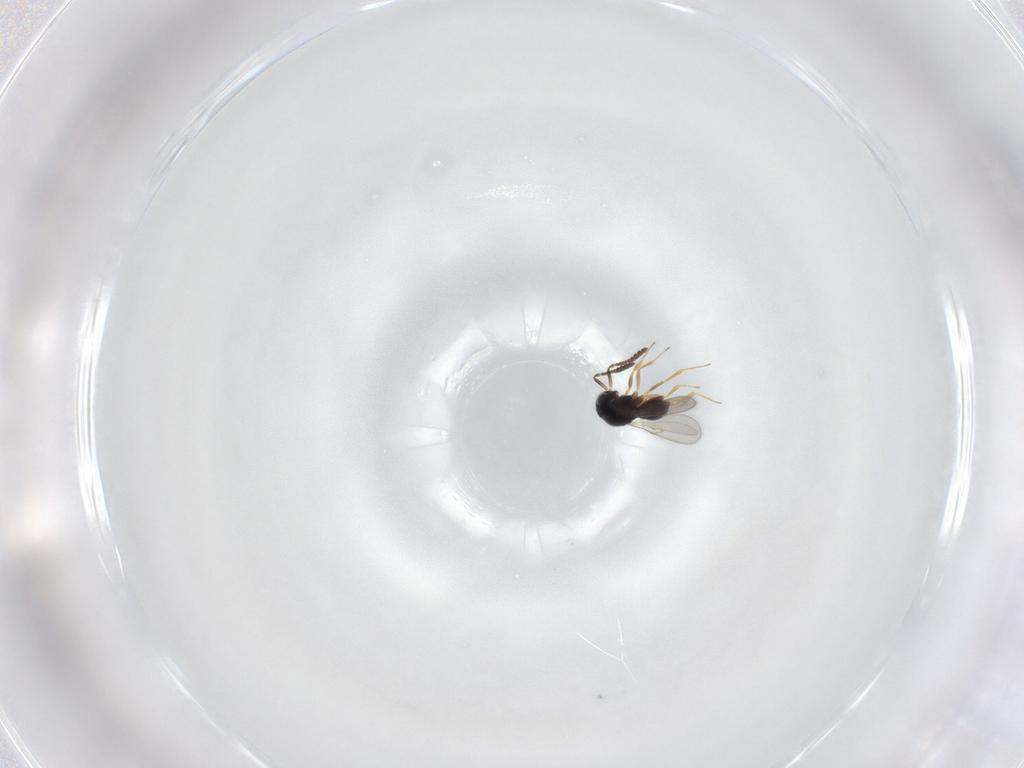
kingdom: Animalia
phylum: Arthropoda
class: Insecta
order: Hymenoptera
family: Scelionidae
